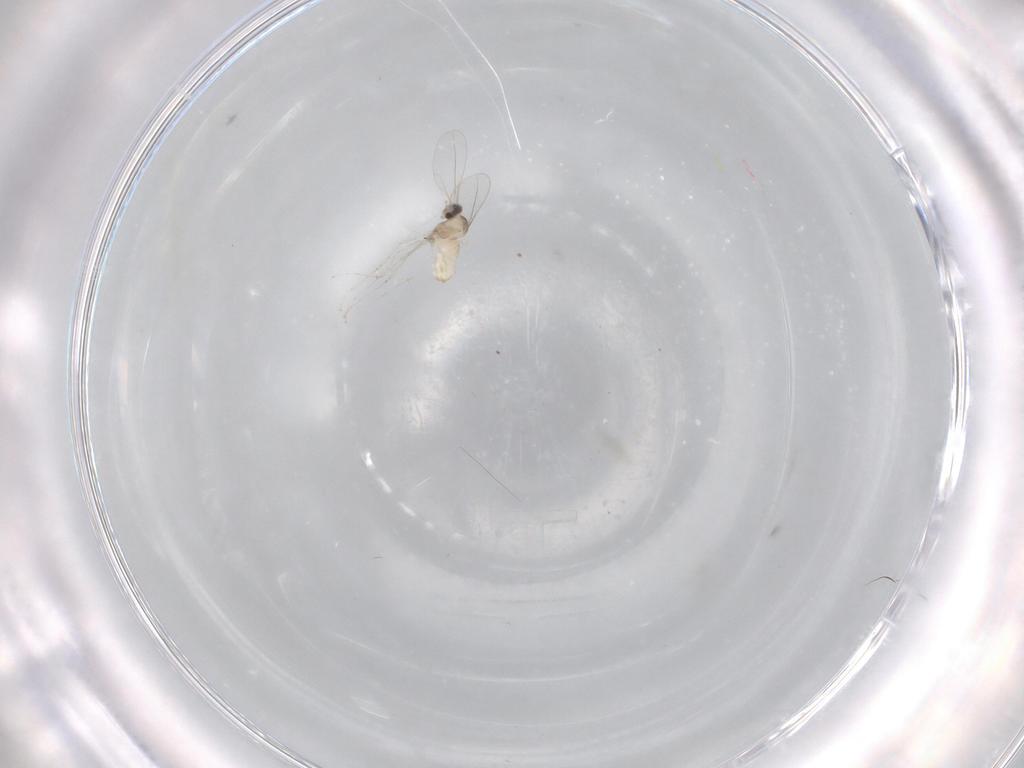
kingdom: Animalia
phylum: Arthropoda
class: Insecta
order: Diptera
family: Cecidomyiidae
